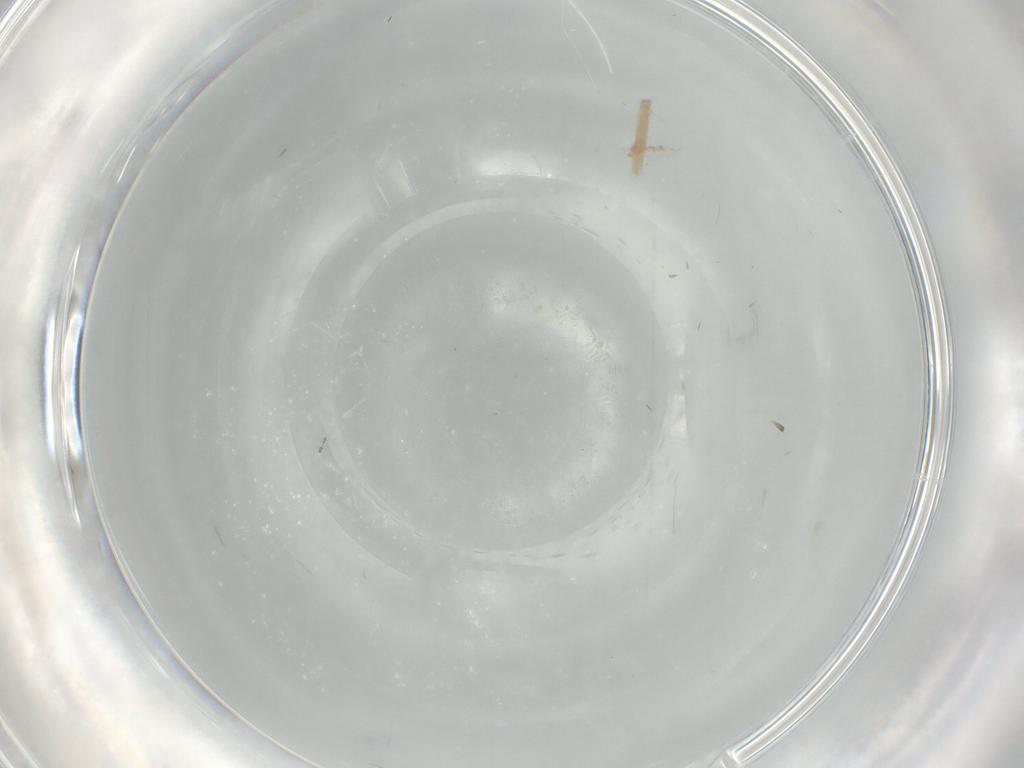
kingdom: Animalia
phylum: Arthropoda
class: Insecta
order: Diptera
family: Cecidomyiidae
